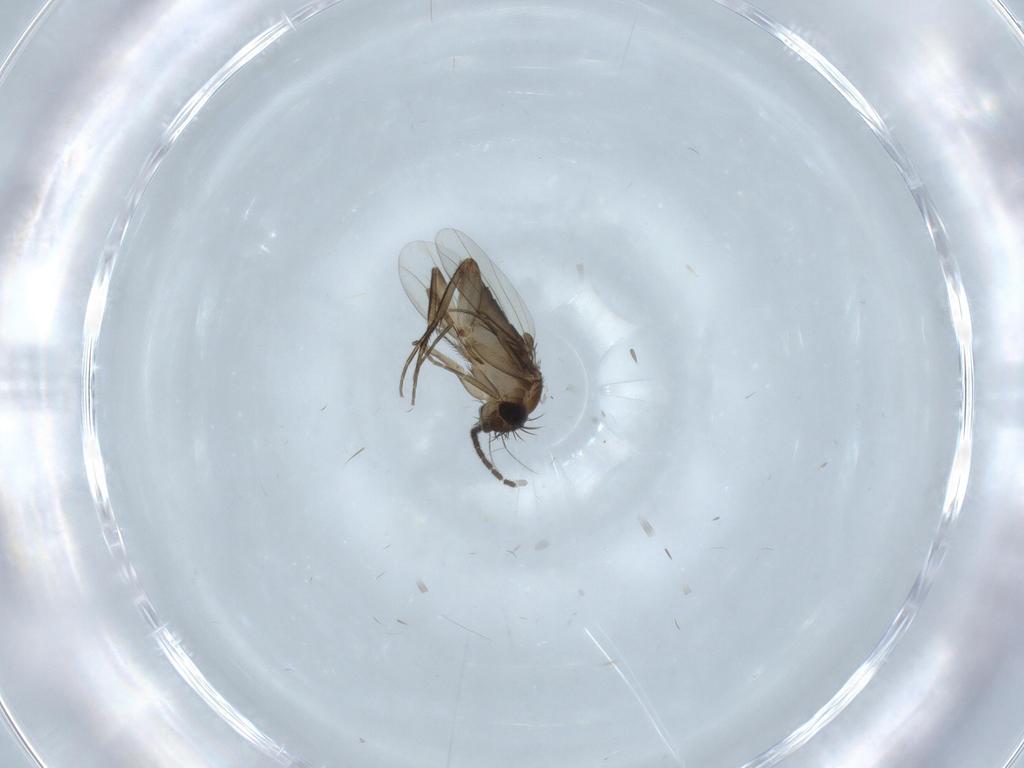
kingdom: Animalia
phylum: Arthropoda
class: Insecta
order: Diptera
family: Sciaridae
